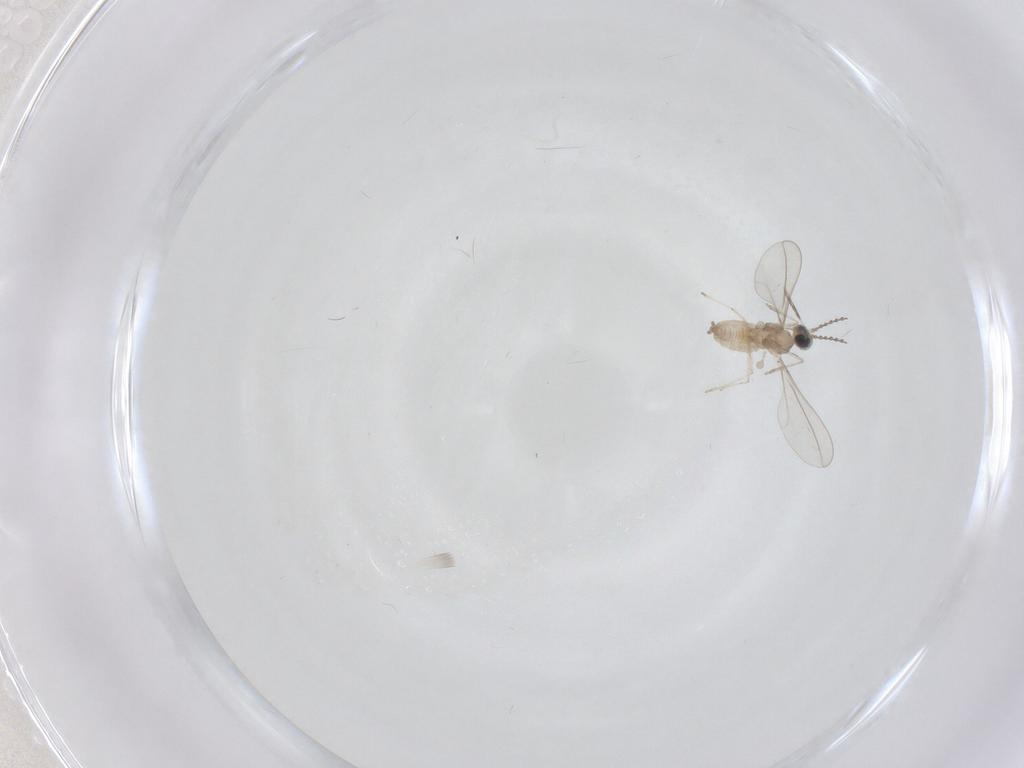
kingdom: Animalia
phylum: Arthropoda
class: Insecta
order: Diptera
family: Cecidomyiidae
